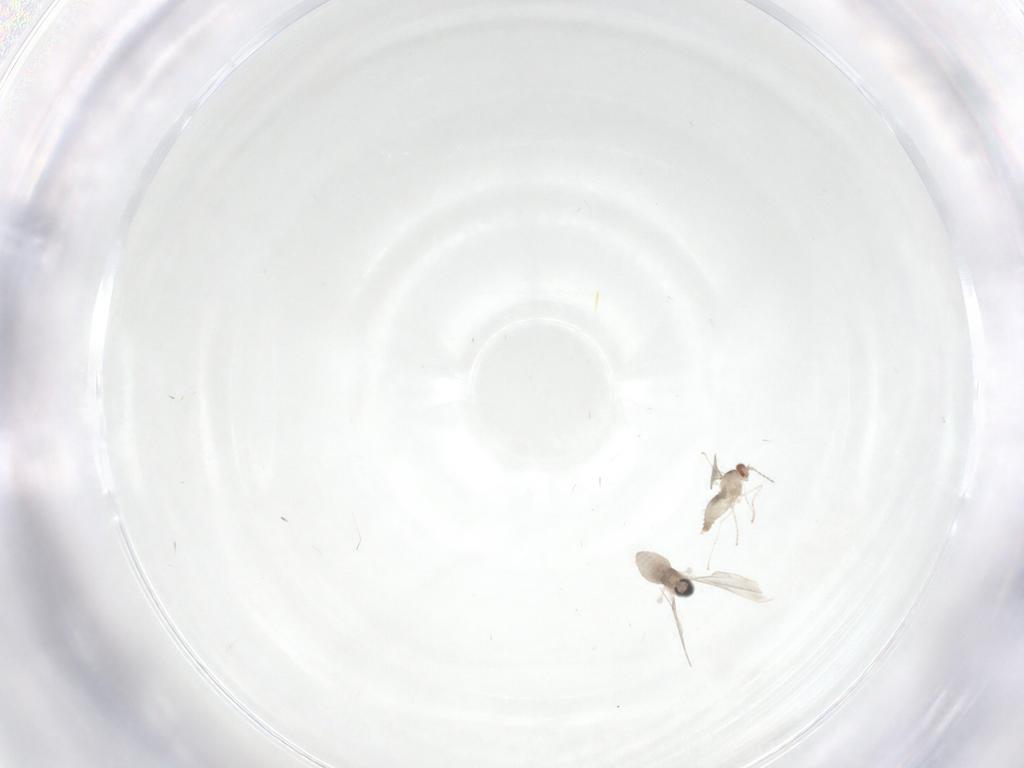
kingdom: Animalia
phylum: Arthropoda
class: Insecta
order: Diptera
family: Cecidomyiidae
